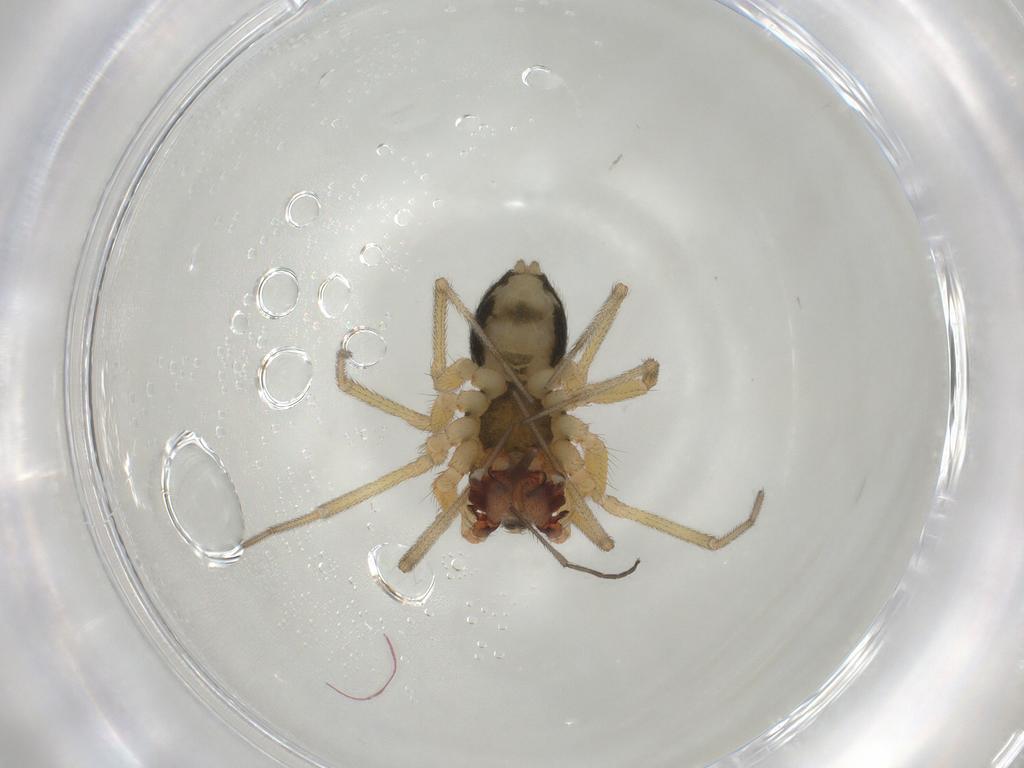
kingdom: Animalia
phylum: Arthropoda
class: Arachnida
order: Araneae
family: Linyphiidae
